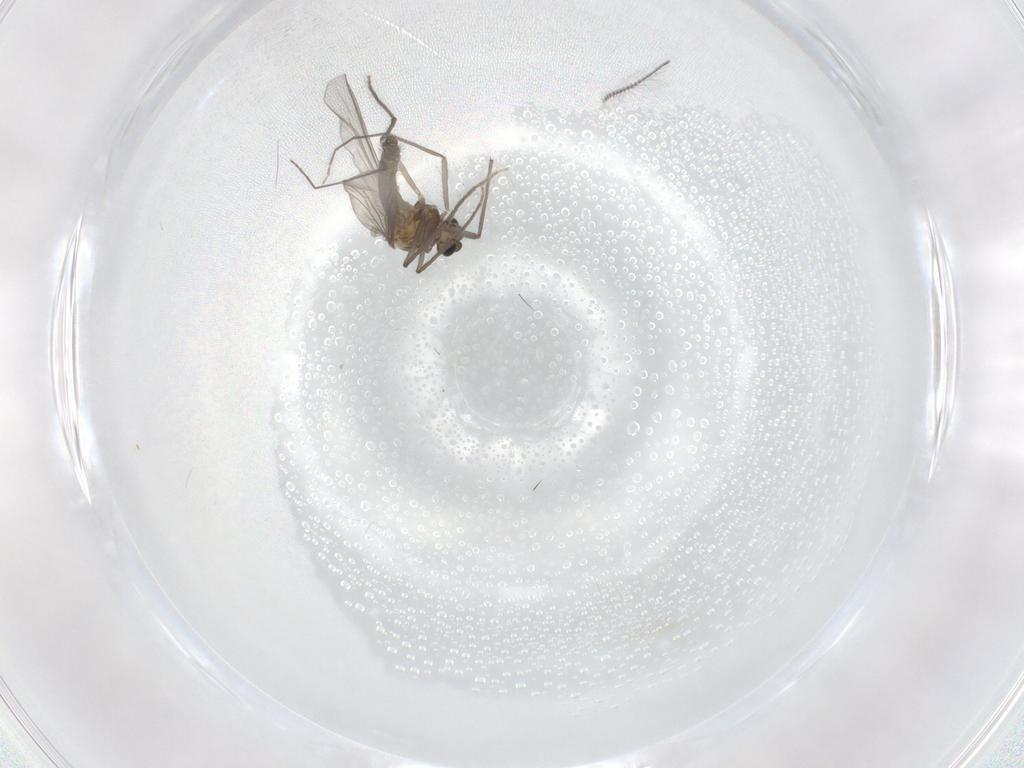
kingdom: Animalia
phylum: Arthropoda
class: Insecta
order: Diptera
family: Chironomidae
